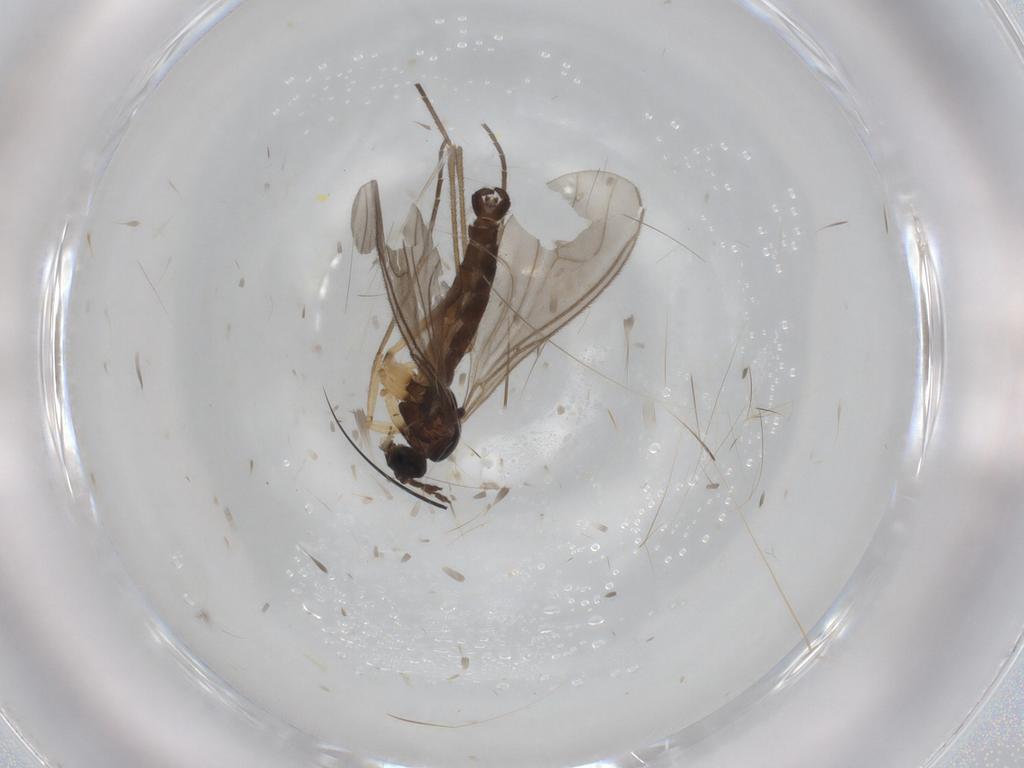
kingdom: Animalia
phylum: Arthropoda
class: Insecta
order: Diptera
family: Sciaridae
